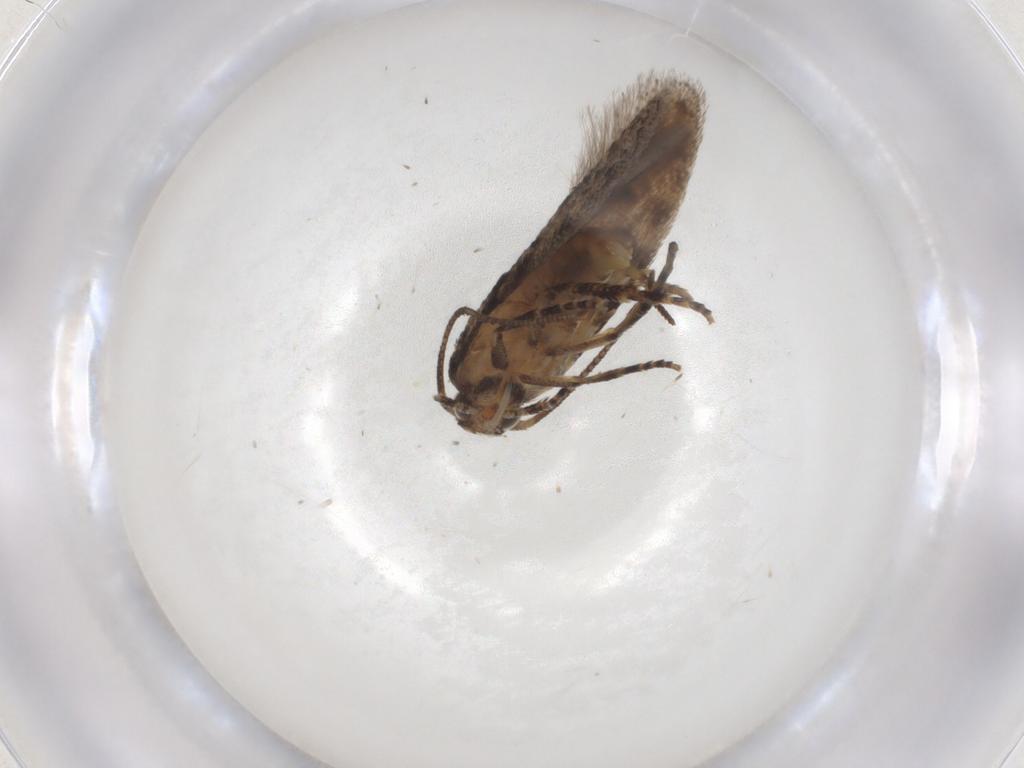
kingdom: Animalia
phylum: Arthropoda
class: Insecta
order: Lepidoptera
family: Gelechiidae
